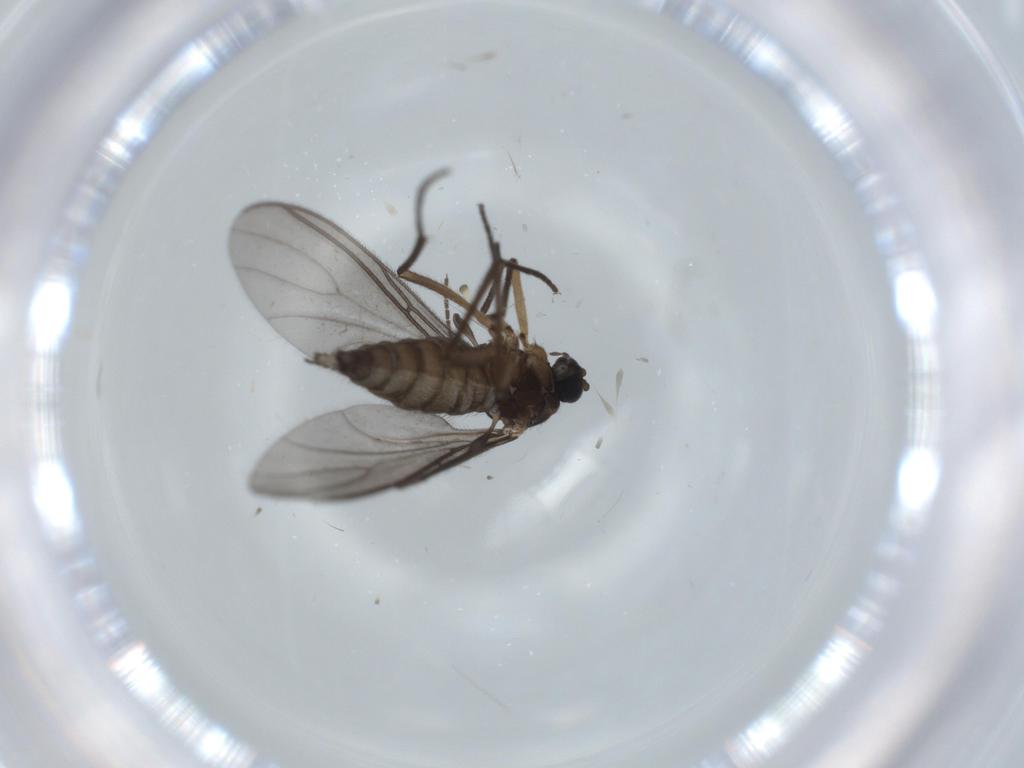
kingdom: Animalia
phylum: Arthropoda
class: Insecta
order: Diptera
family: Sciaridae
